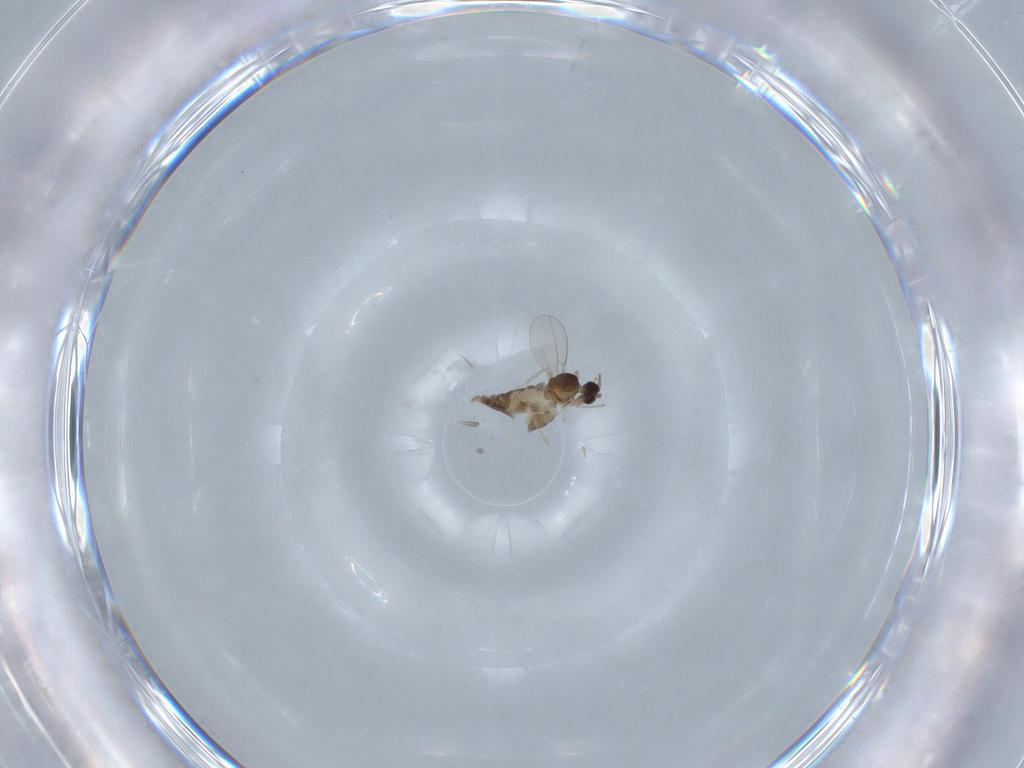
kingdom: Animalia
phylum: Arthropoda
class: Insecta
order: Diptera
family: Cecidomyiidae
